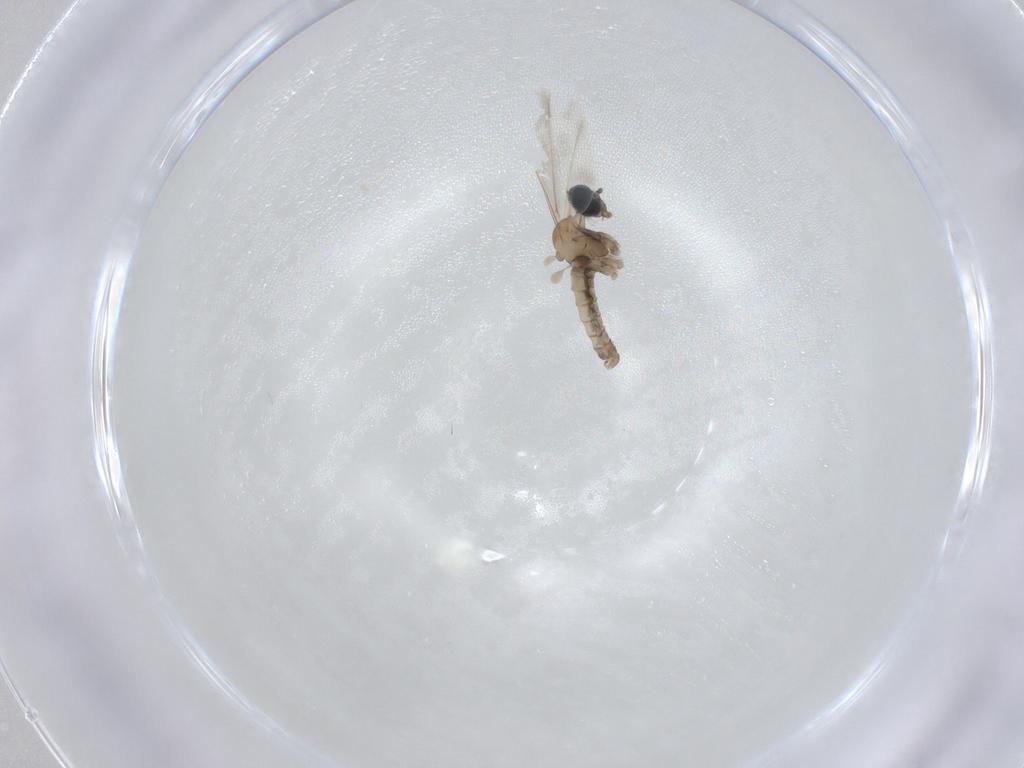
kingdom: Animalia
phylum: Arthropoda
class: Insecta
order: Diptera
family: Cecidomyiidae
